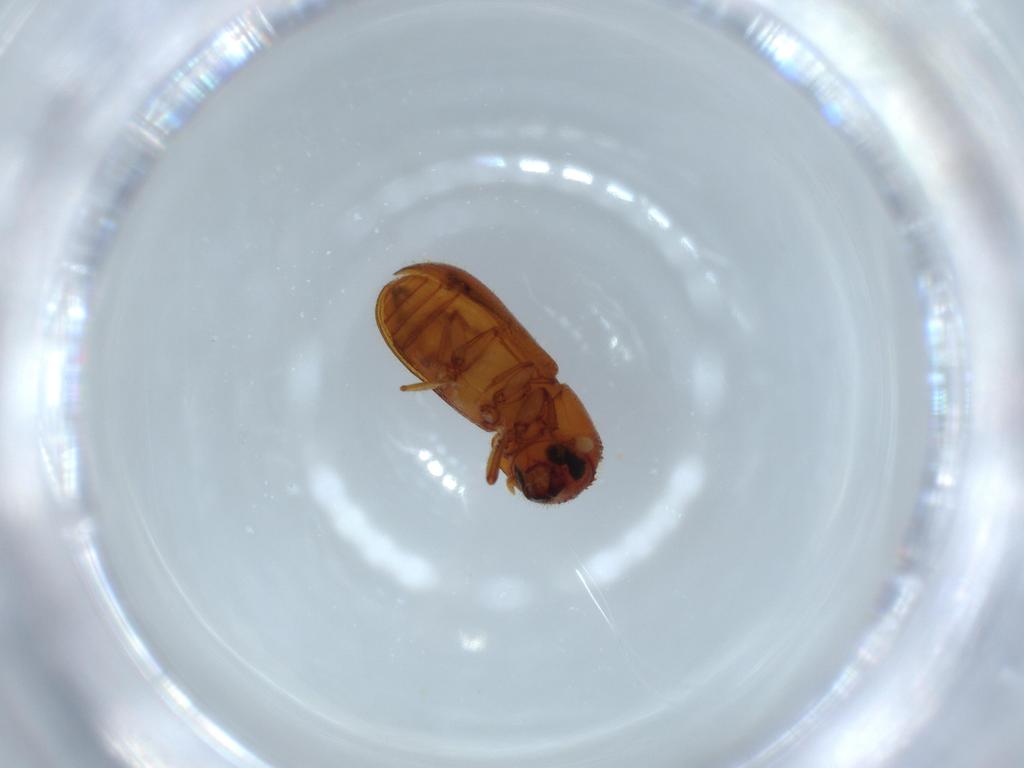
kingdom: Animalia
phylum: Arthropoda
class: Insecta
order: Coleoptera
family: Curculionidae
